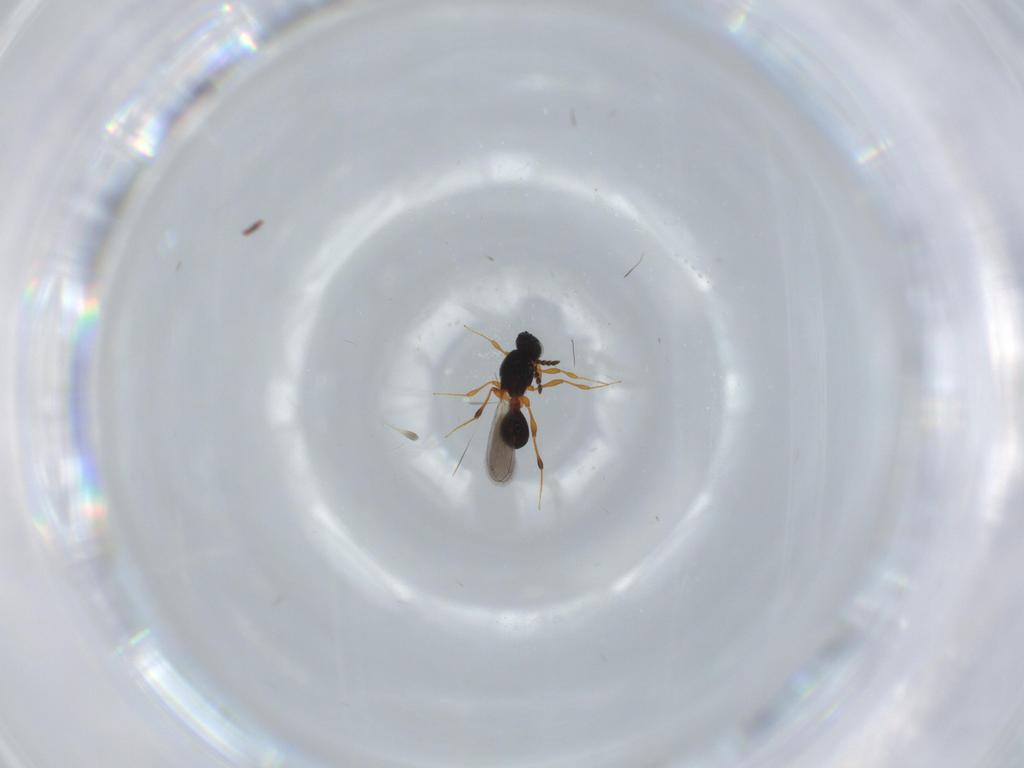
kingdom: Animalia
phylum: Arthropoda
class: Insecta
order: Hymenoptera
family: Platygastridae
